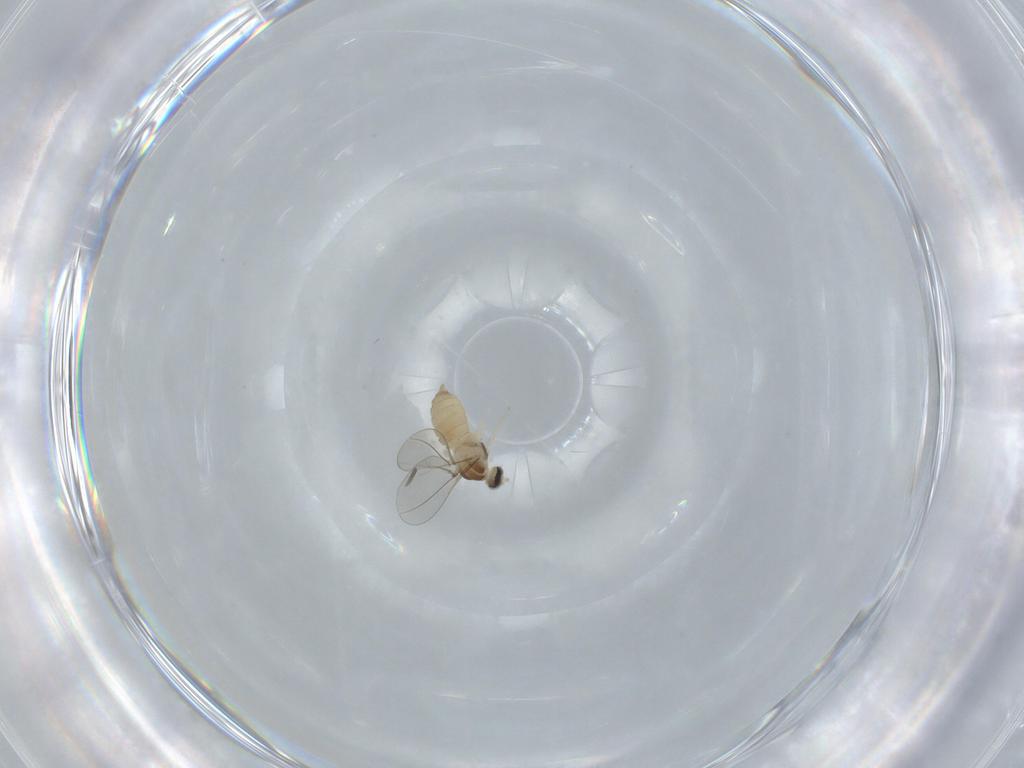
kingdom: Animalia
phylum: Arthropoda
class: Insecta
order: Diptera
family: Cecidomyiidae
